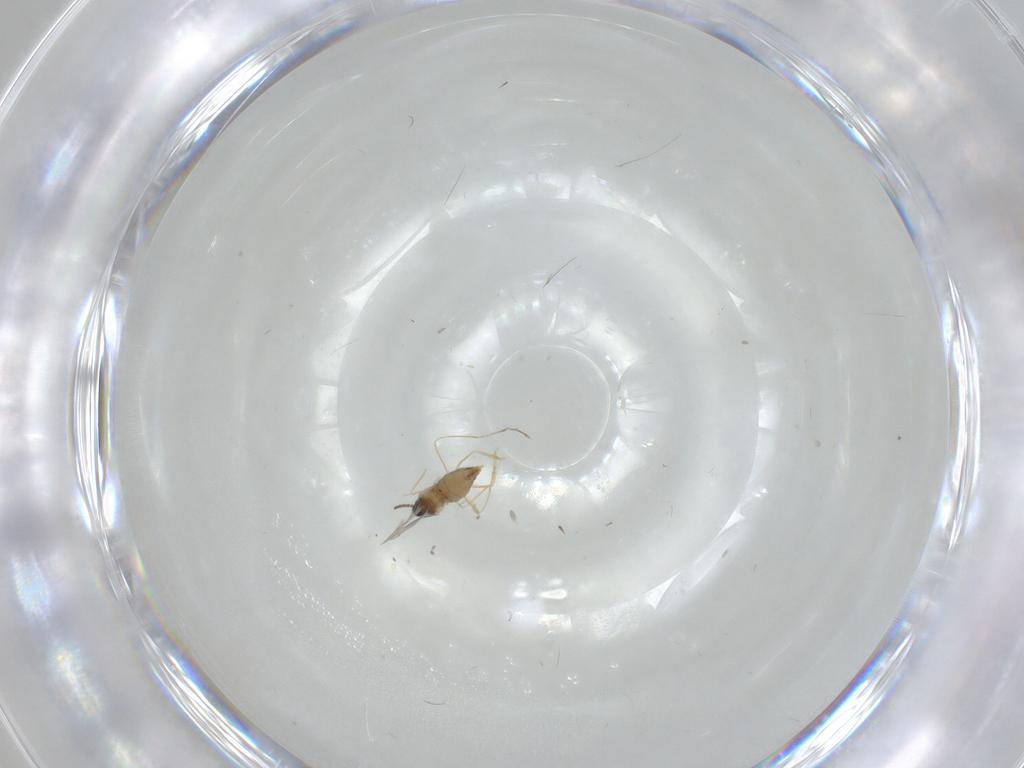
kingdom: Animalia
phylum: Arthropoda
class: Insecta
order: Diptera
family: Cecidomyiidae
